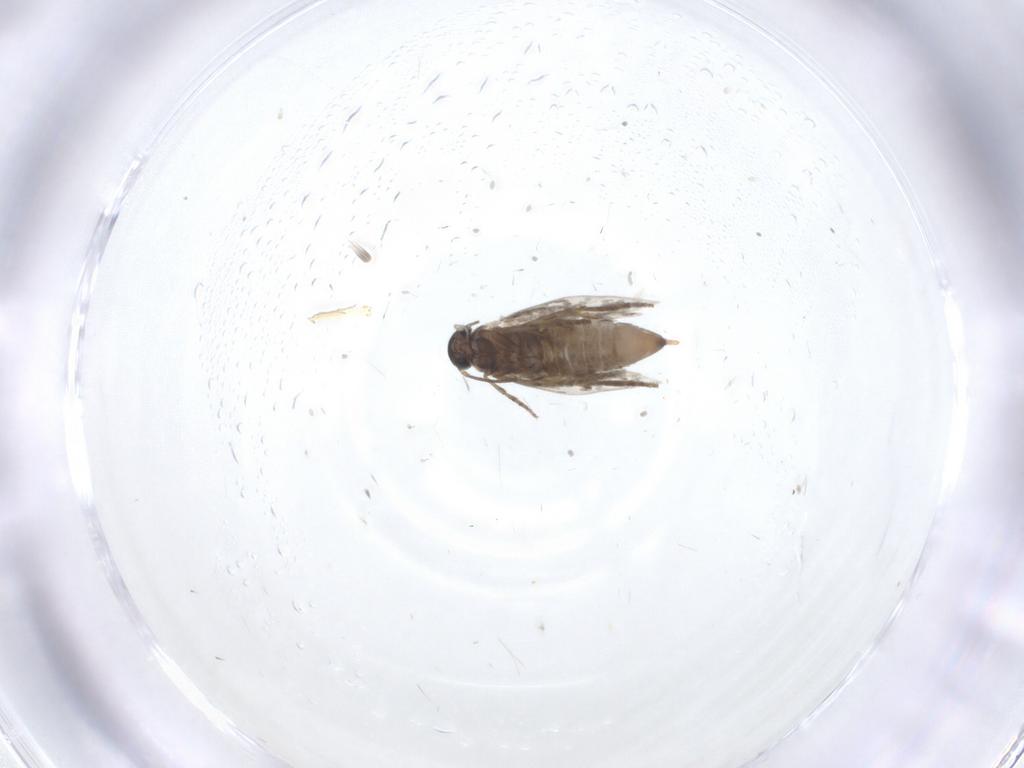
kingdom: Animalia
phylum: Arthropoda
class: Insecta
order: Lepidoptera
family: Heliozelidae
